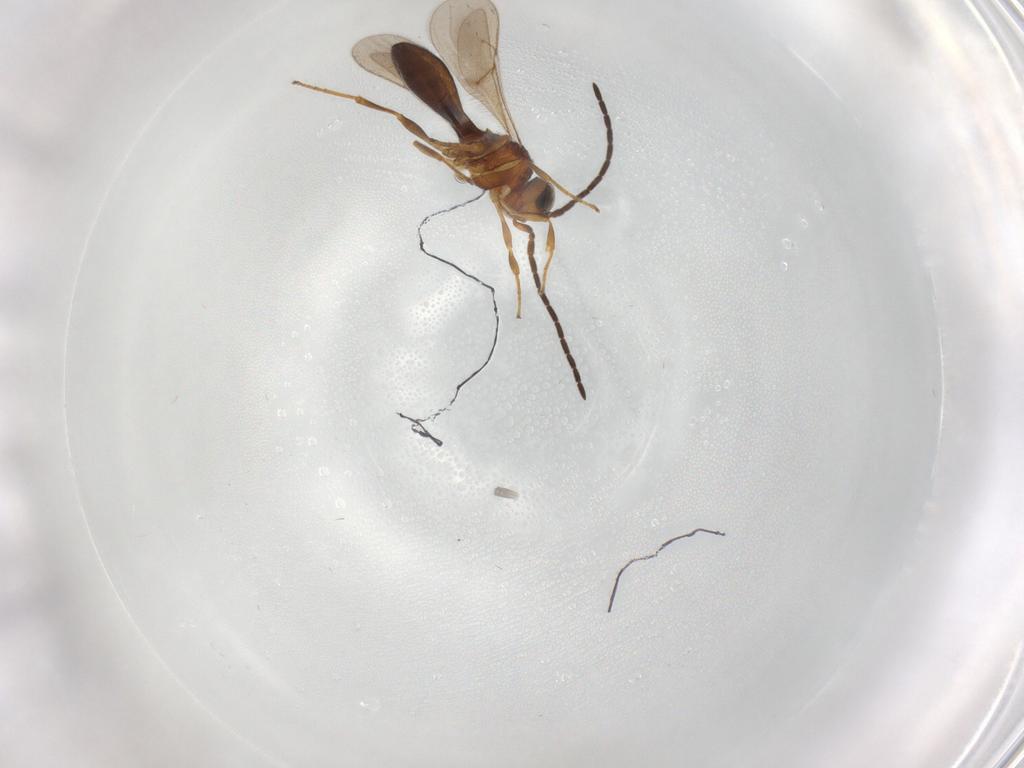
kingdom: Animalia
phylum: Arthropoda
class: Insecta
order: Hymenoptera
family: Scelionidae
